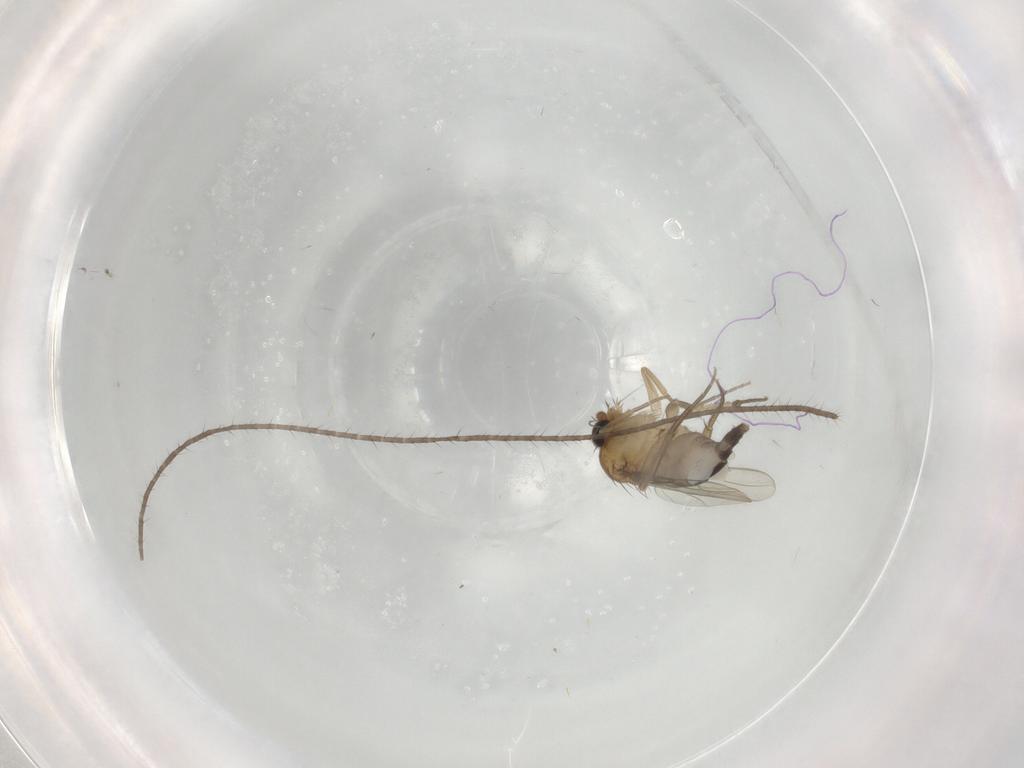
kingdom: Animalia
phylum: Arthropoda
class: Insecta
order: Diptera
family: Phoridae
